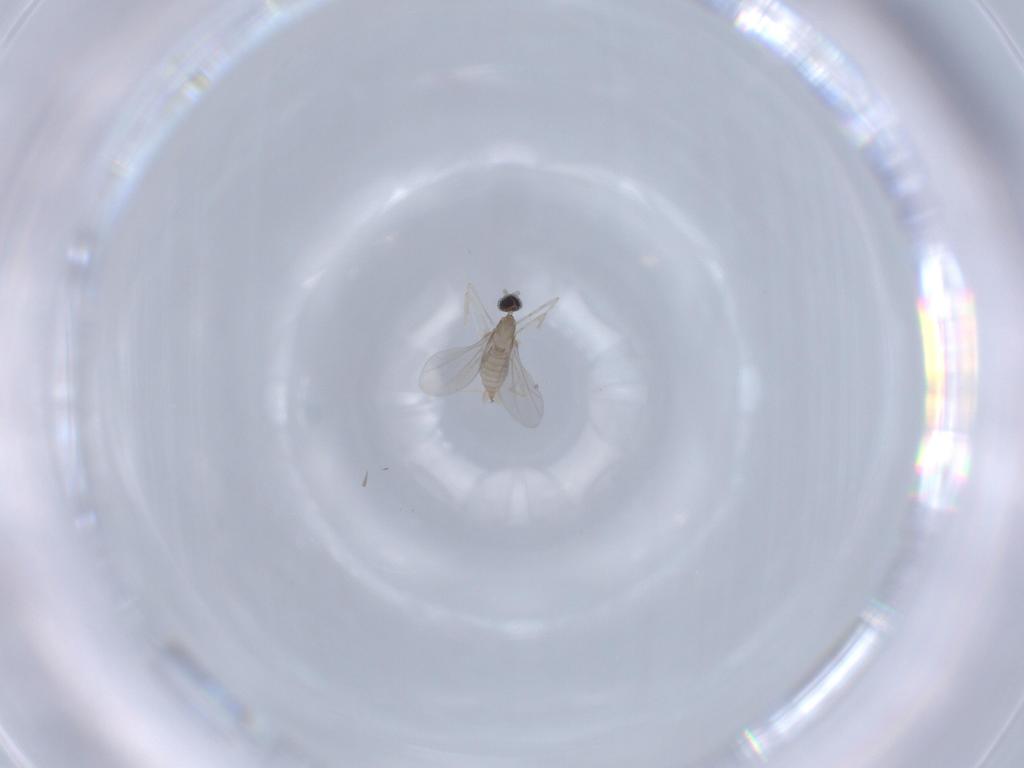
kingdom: Animalia
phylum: Arthropoda
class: Insecta
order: Diptera
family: Cecidomyiidae
